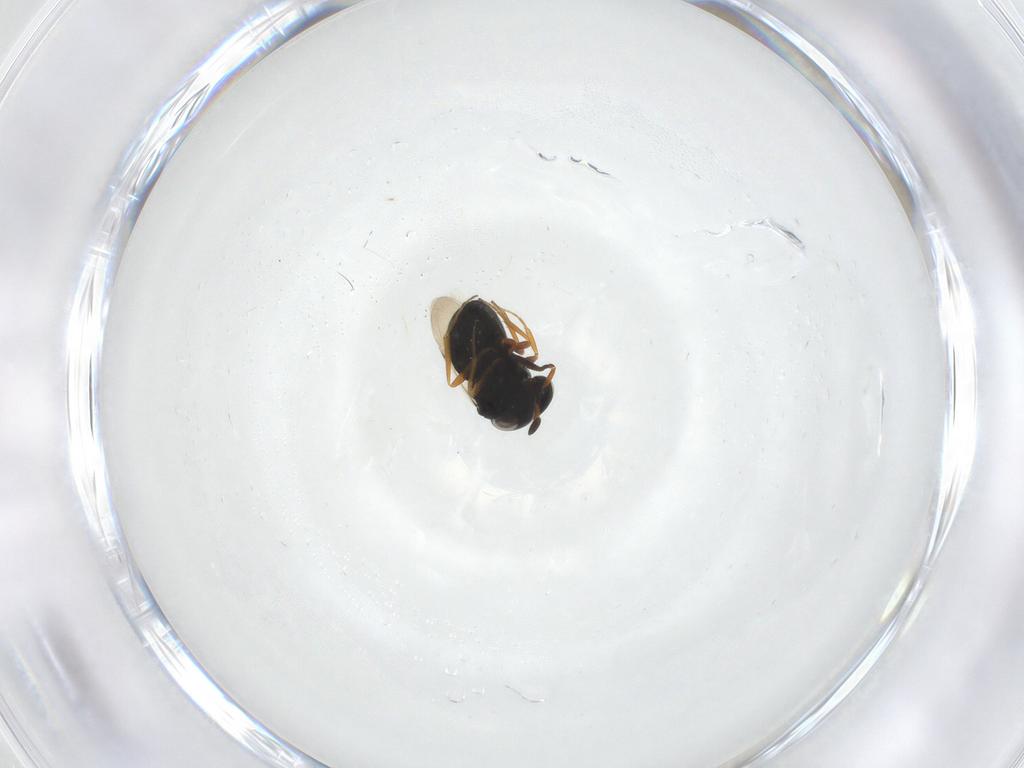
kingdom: Animalia
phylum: Arthropoda
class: Insecta
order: Hymenoptera
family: Scelionidae
